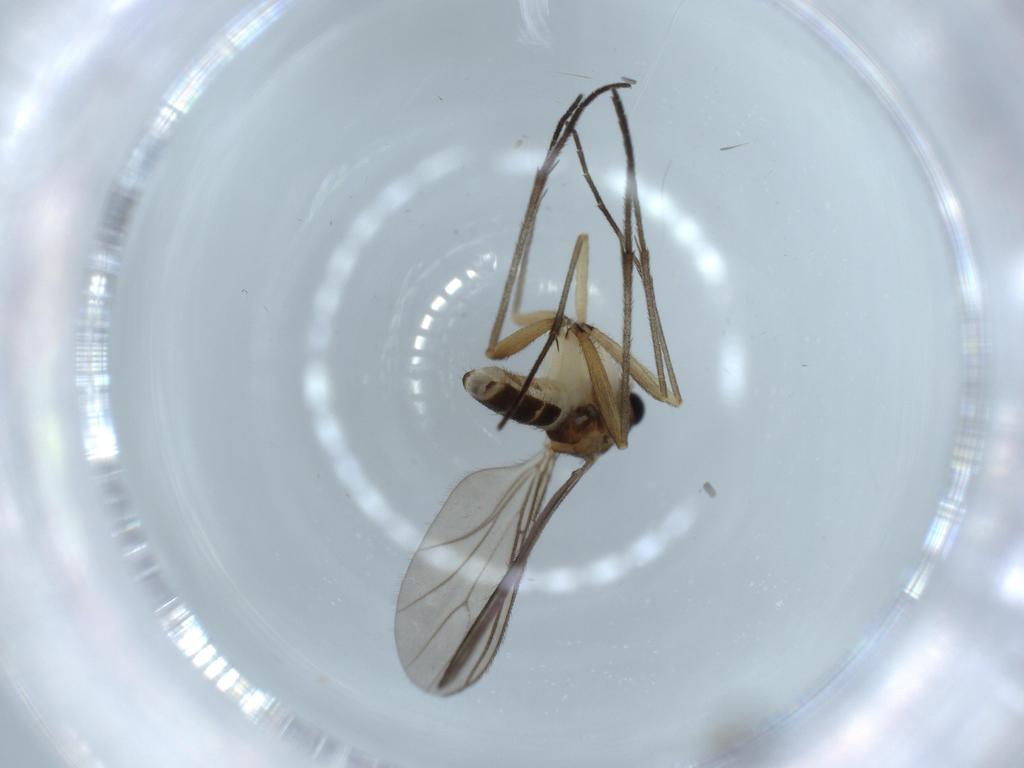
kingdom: Animalia
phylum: Arthropoda
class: Insecta
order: Diptera
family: Sciaridae
